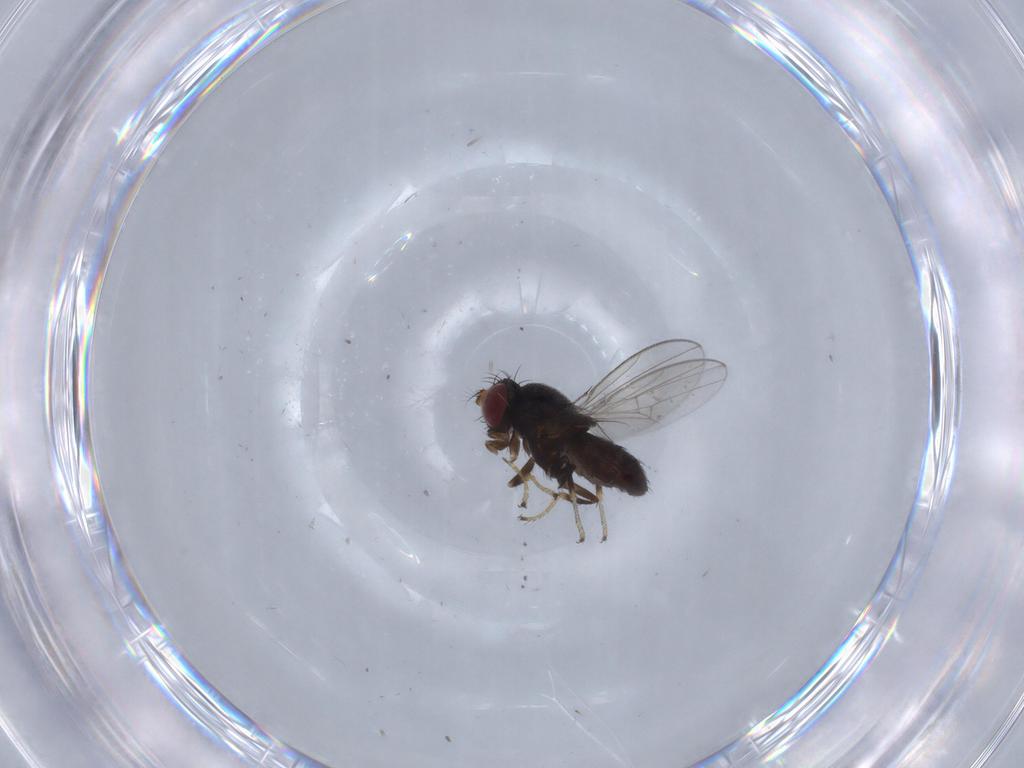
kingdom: Animalia
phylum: Arthropoda
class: Insecta
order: Diptera
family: Ephydridae
